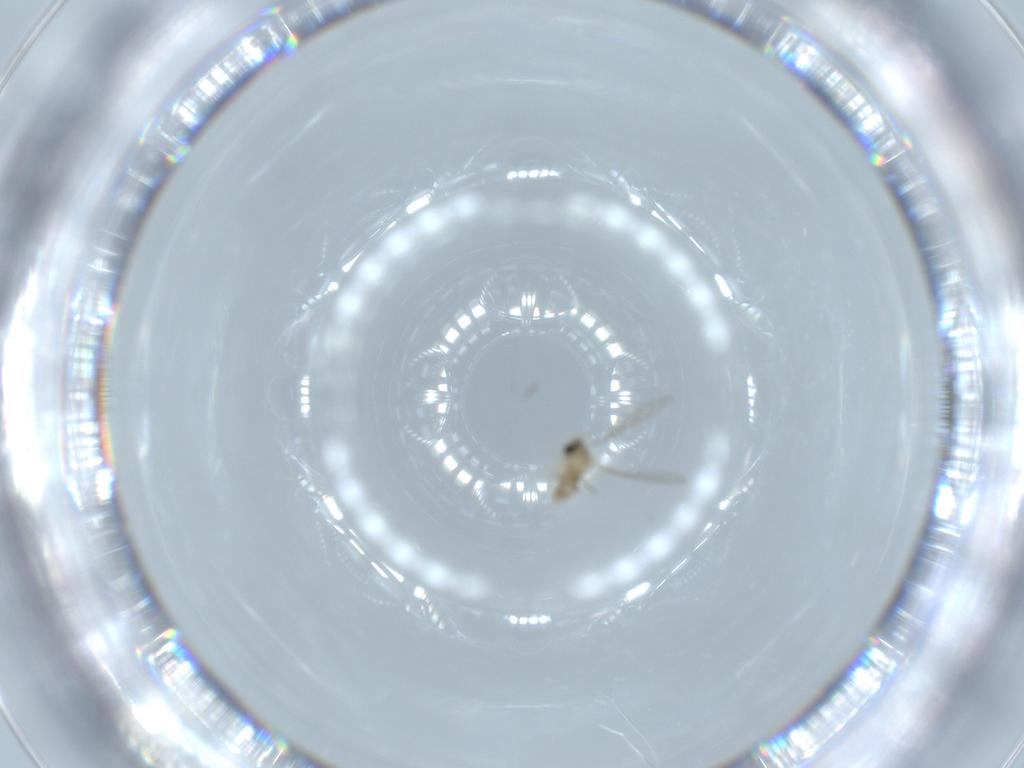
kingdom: Animalia
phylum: Arthropoda
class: Insecta
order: Diptera
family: Cecidomyiidae
